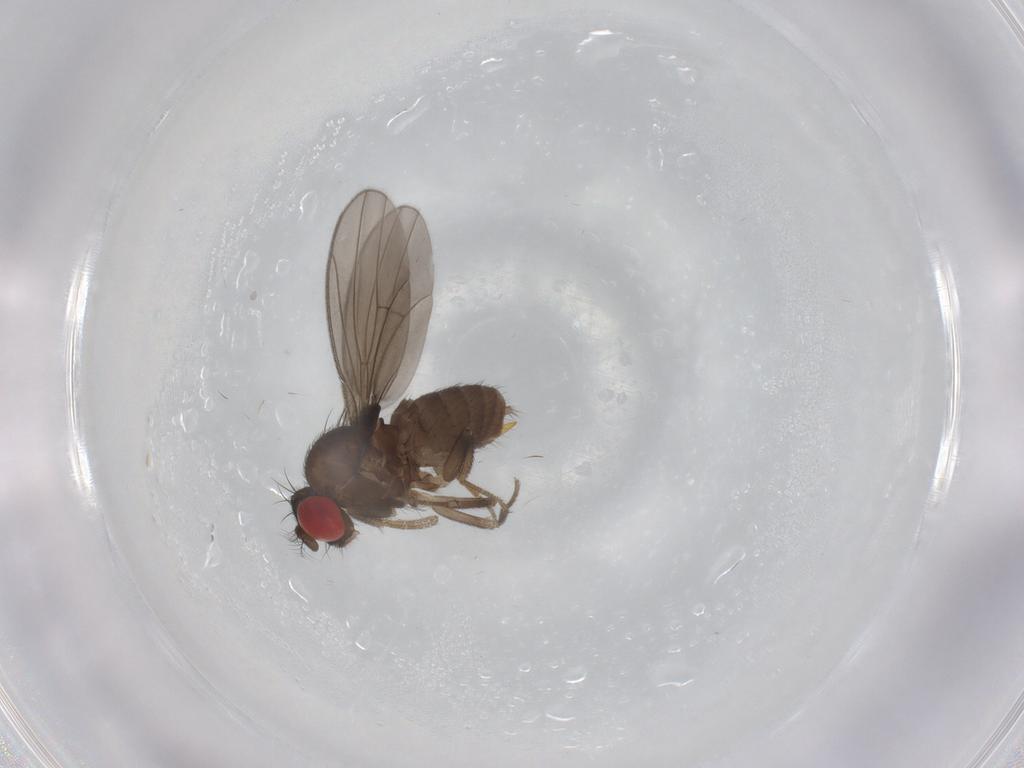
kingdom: Animalia
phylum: Arthropoda
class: Insecta
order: Diptera
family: Drosophilidae
